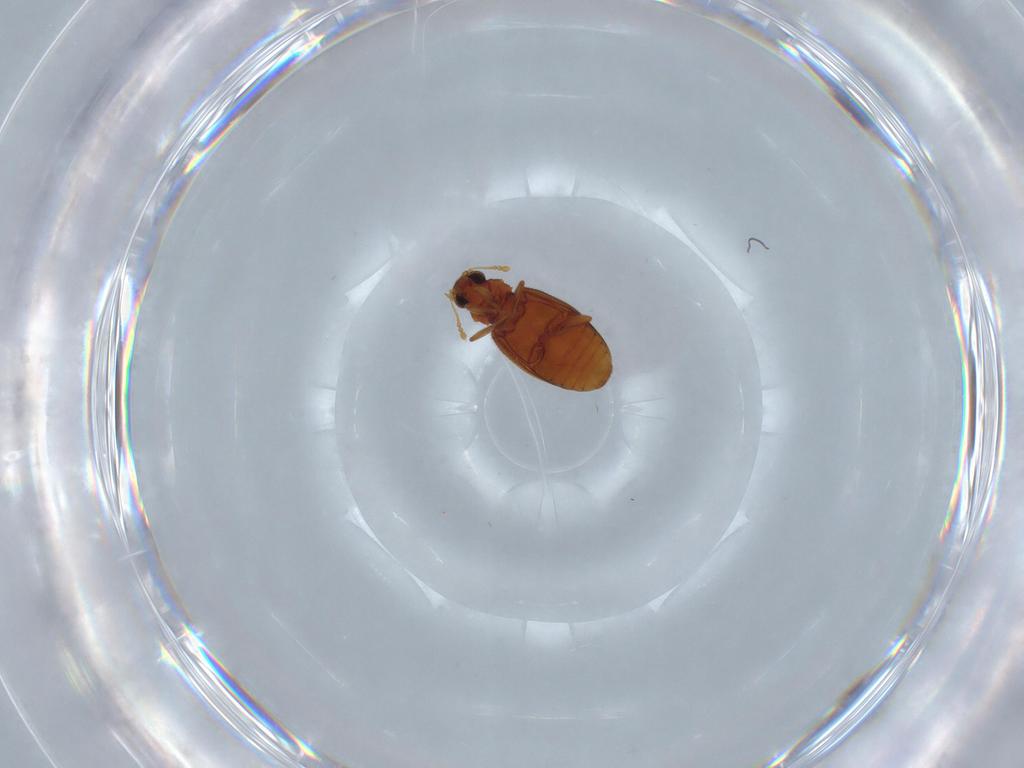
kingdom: Animalia
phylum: Arthropoda
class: Insecta
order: Coleoptera
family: Latridiidae
